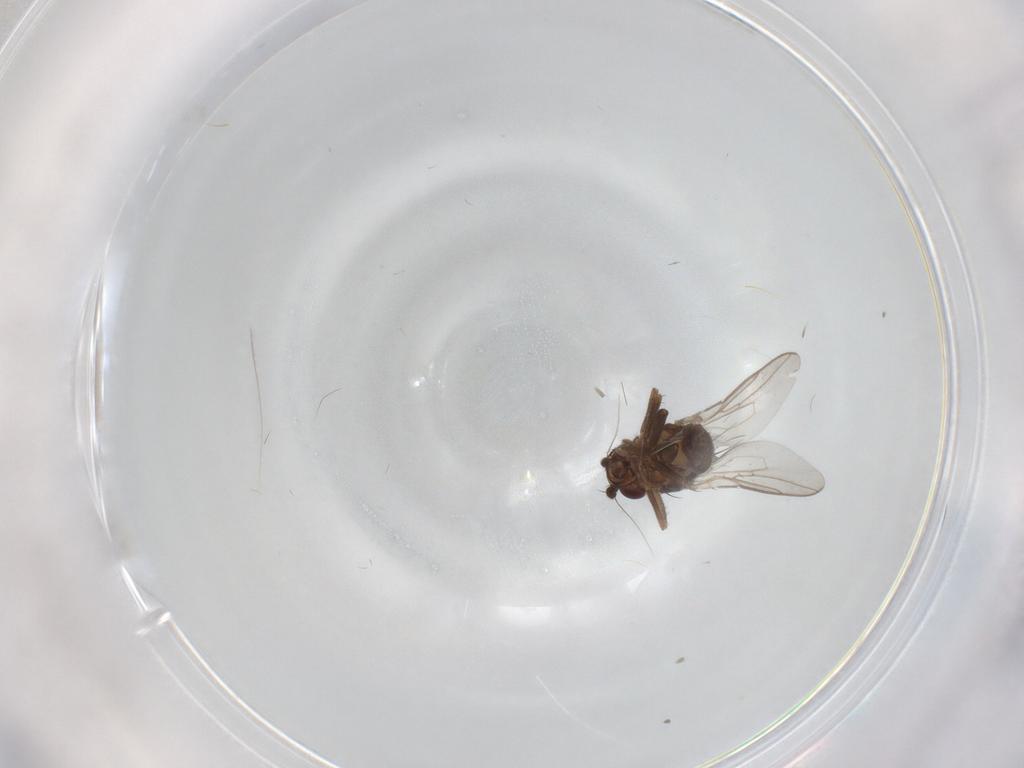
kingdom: Animalia
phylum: Arthropoda
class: Insecta
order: Diptera
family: Sphaeroceridae
